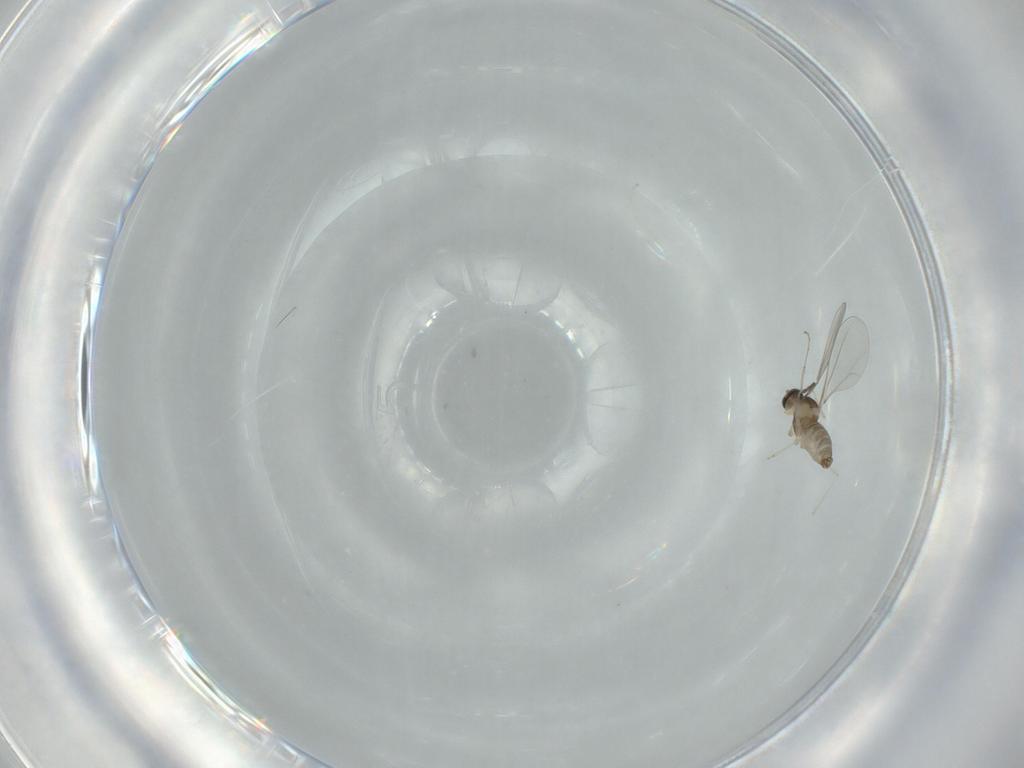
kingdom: Animalia
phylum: Arthropoda
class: Insecta
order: Diptera
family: Cecidomyiidae
